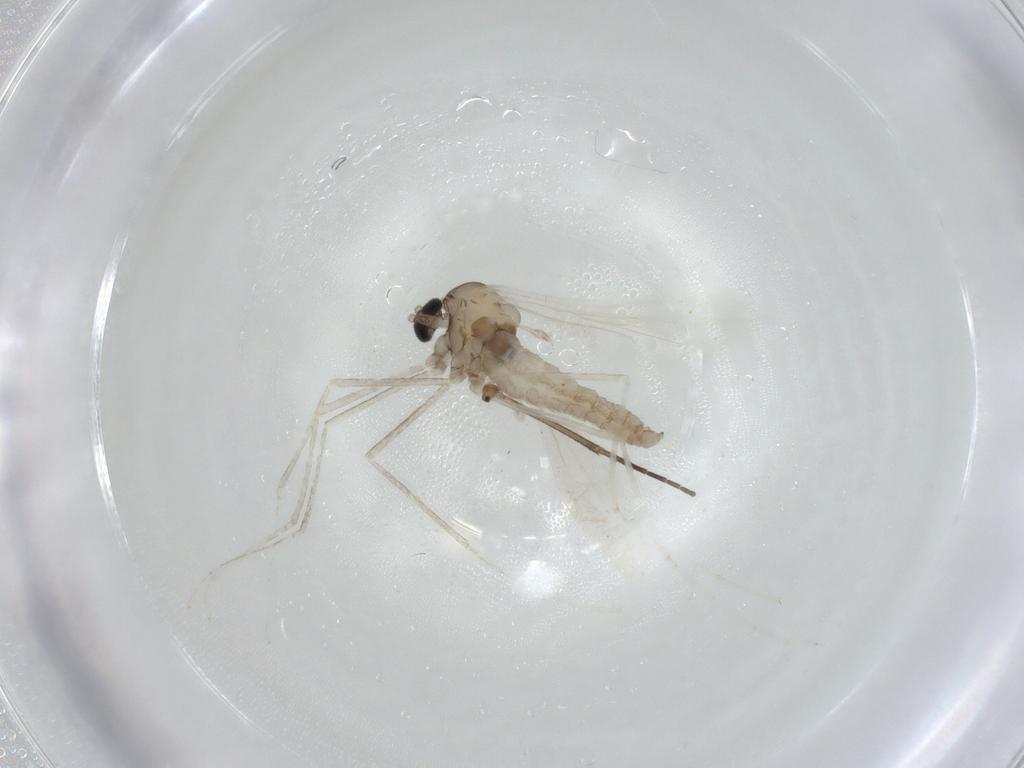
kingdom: Animalia
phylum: Arthropoda
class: Insecta
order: Diptera
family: Cecidomyiidae
